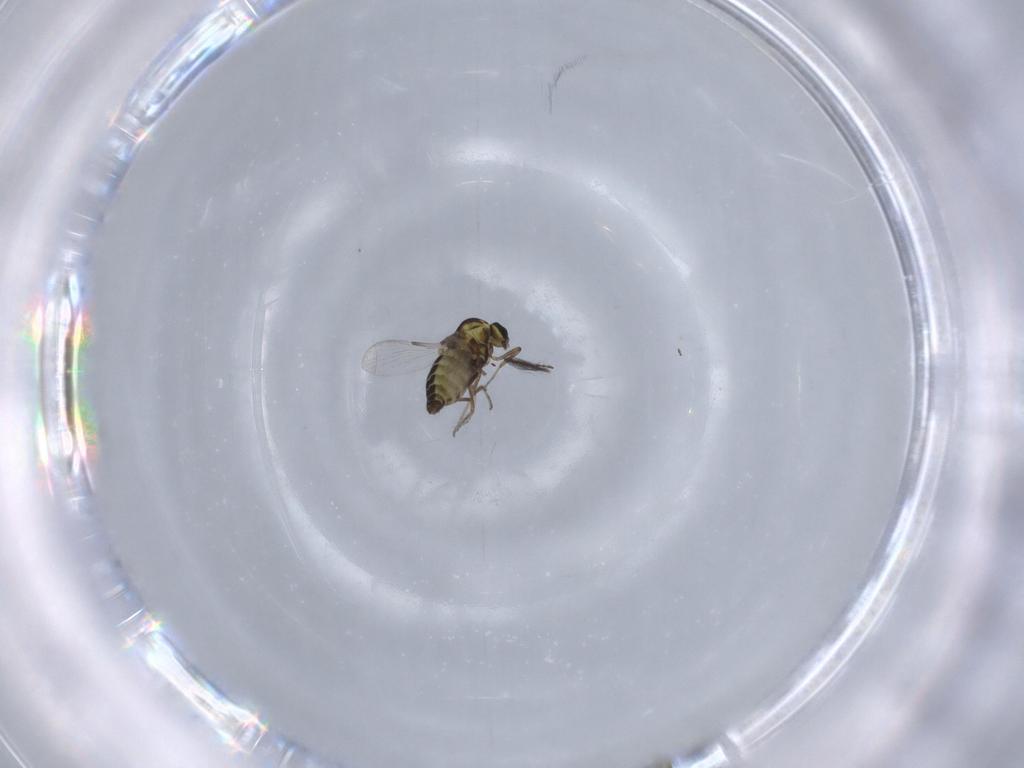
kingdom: Animalia
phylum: Arthropoda
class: Insecta
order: Diptera
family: Ceratopogonidae
